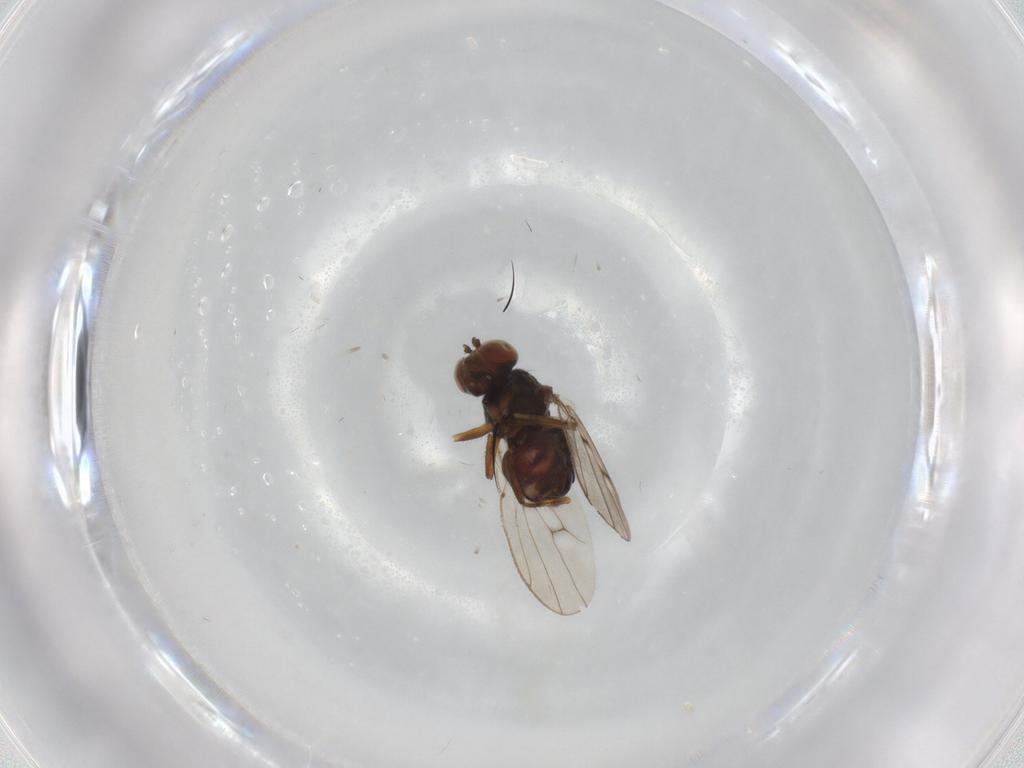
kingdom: Animalia
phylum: Arthropoda
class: Insecta
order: Diptera
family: Ephydridae
